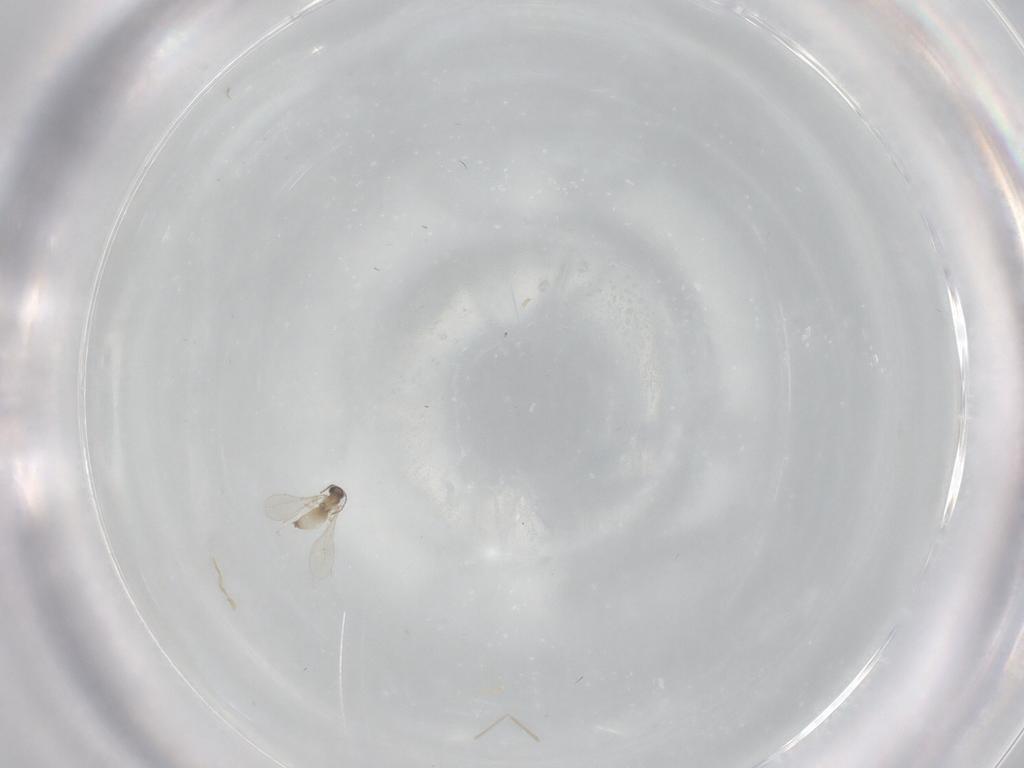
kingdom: Animalia
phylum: Arthropoda
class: Insecta
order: Diptera
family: Cecidomyiidae
